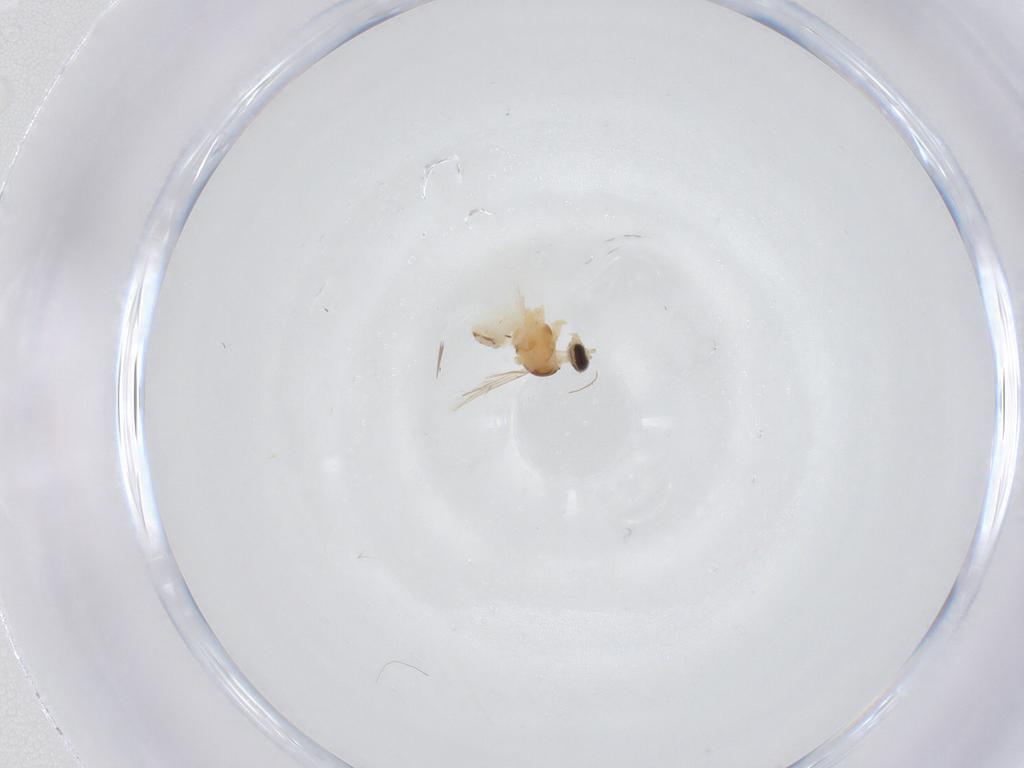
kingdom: Animalia
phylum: Arthropoda
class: Insecta
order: Diptera
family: Cecidomyiidae
